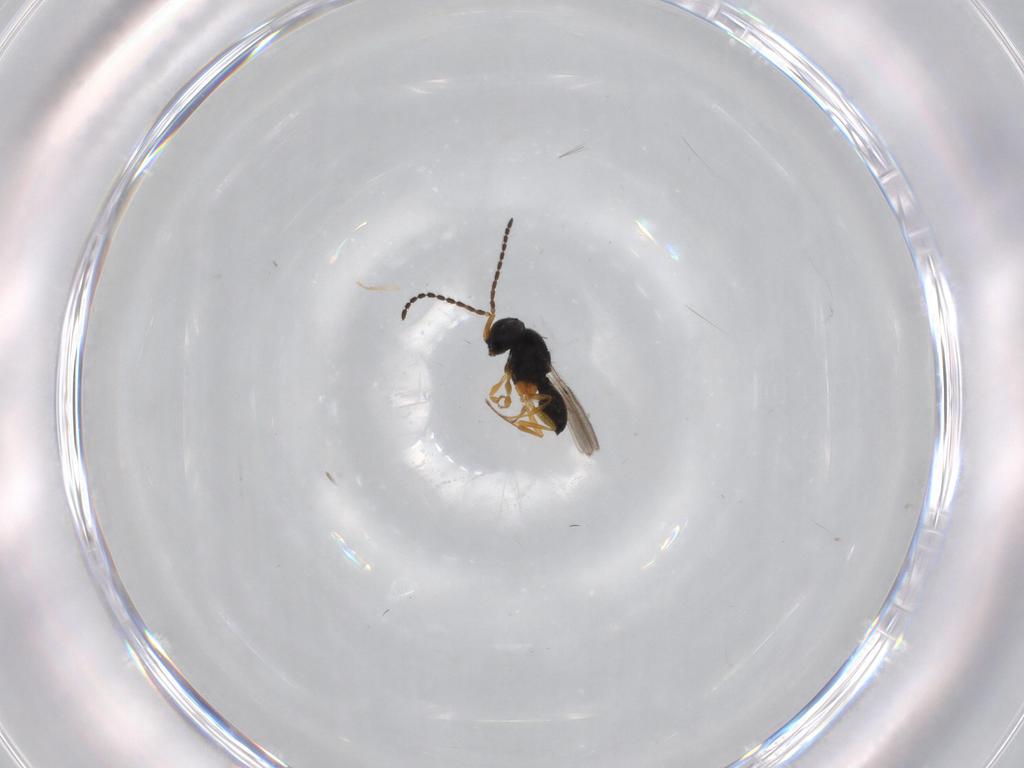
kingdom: Animalia
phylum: Arthropoda
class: Insecta
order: Hymenoptera
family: Scelionidae
